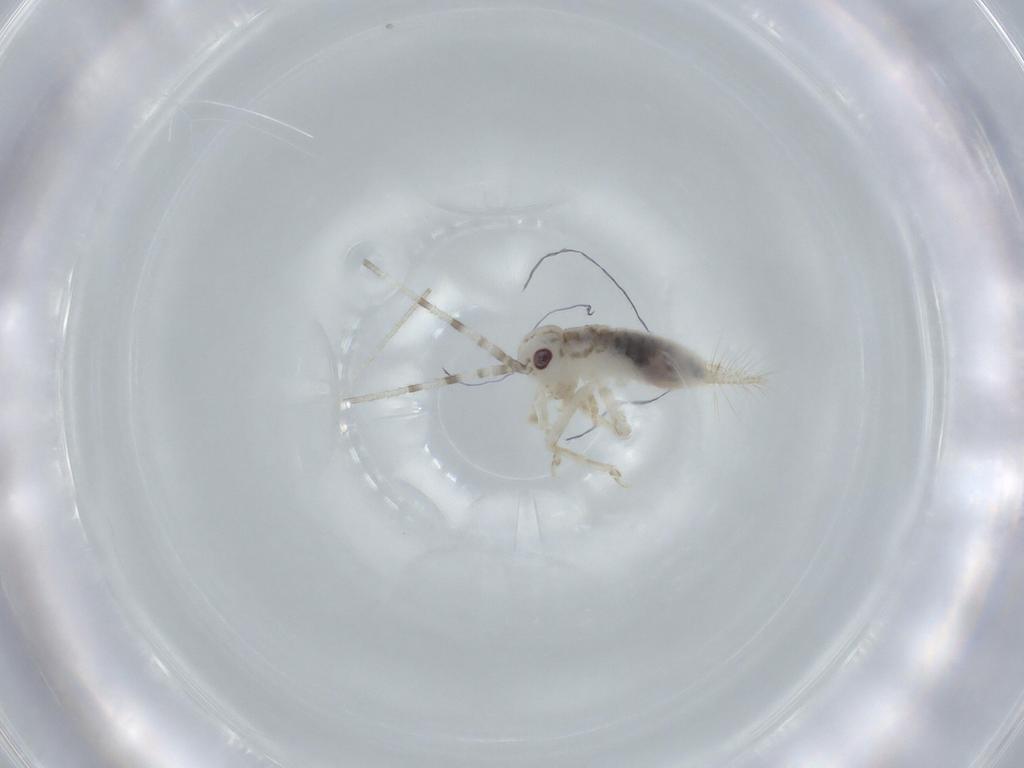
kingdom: Animalia
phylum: Arthropoda
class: Insecta
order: Orthoptera
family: Trigonidiidae
